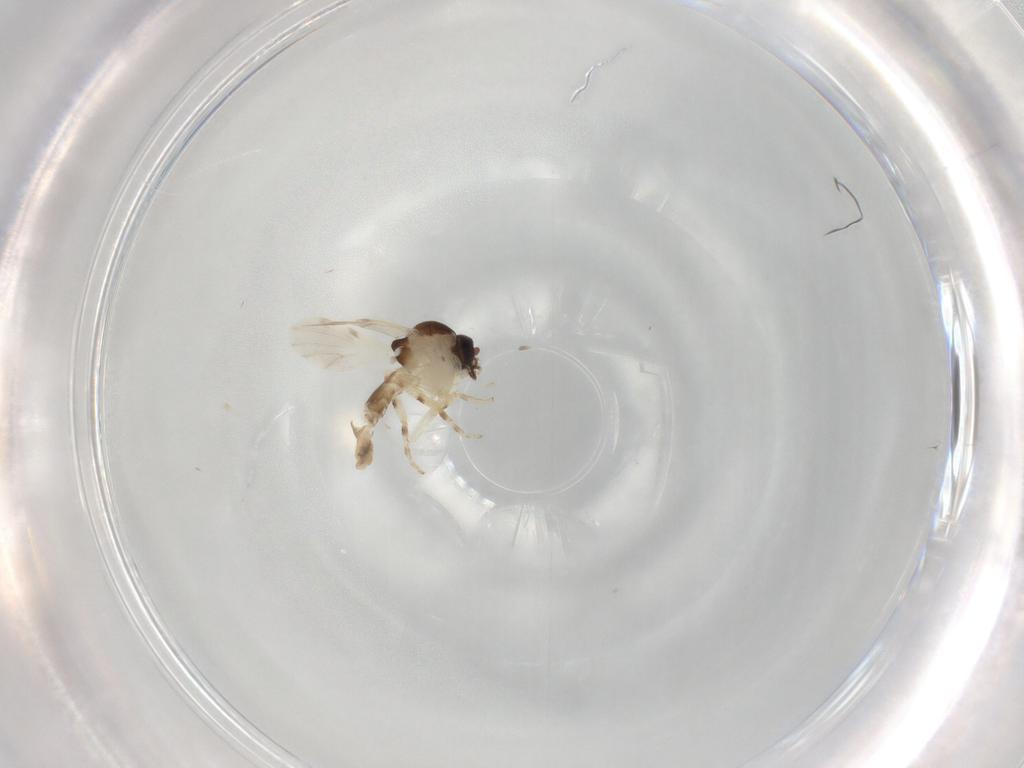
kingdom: Animalia
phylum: Arthropoda
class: Insecta
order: Diptera
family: Ceratopogonidae
